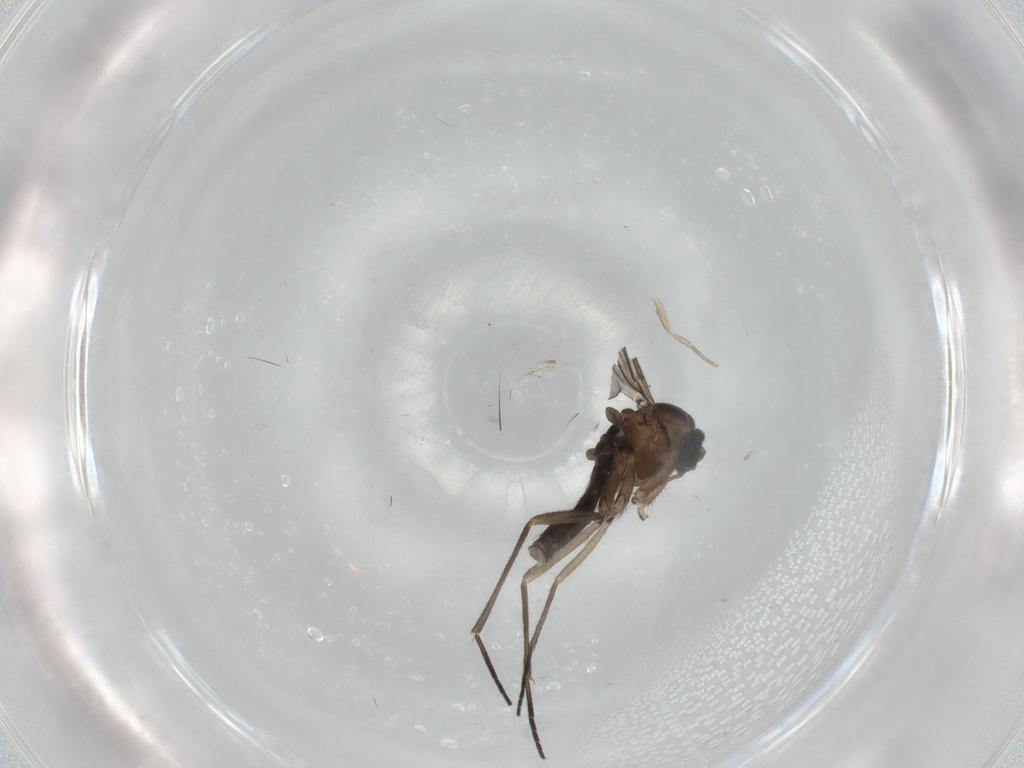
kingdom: Animalia
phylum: Arthropoda
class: Insecta
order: Diptera
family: Sciaridae
